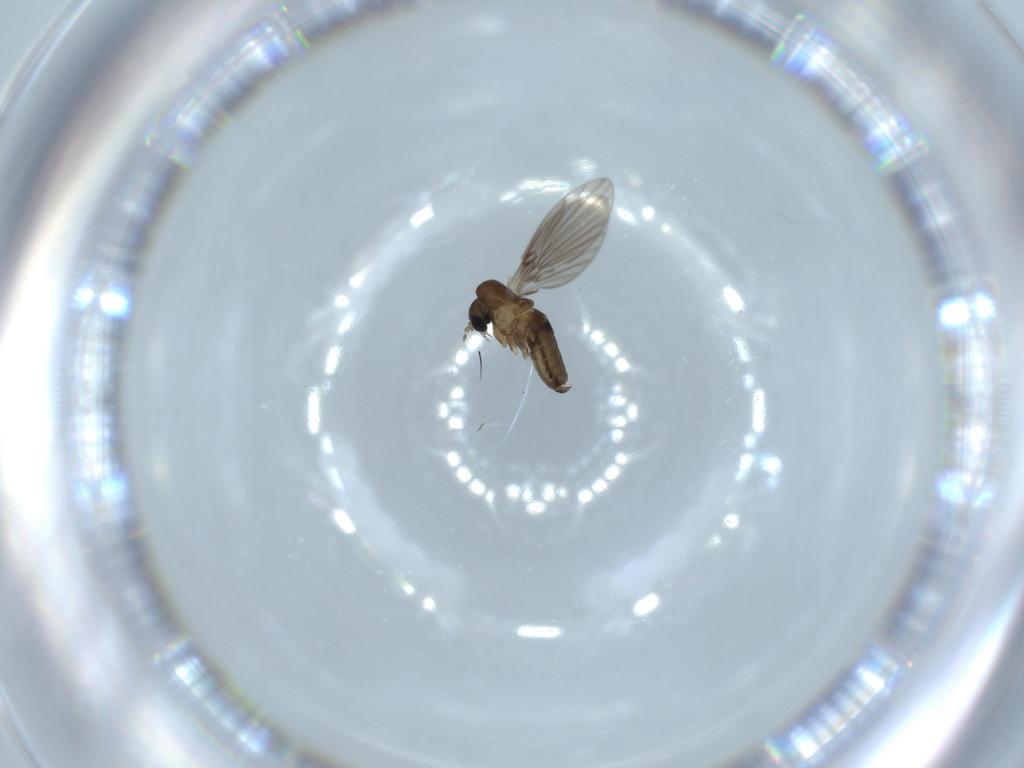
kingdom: Animalia
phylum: Arthropoda
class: Insecta
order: Diptera
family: Psychodidae
